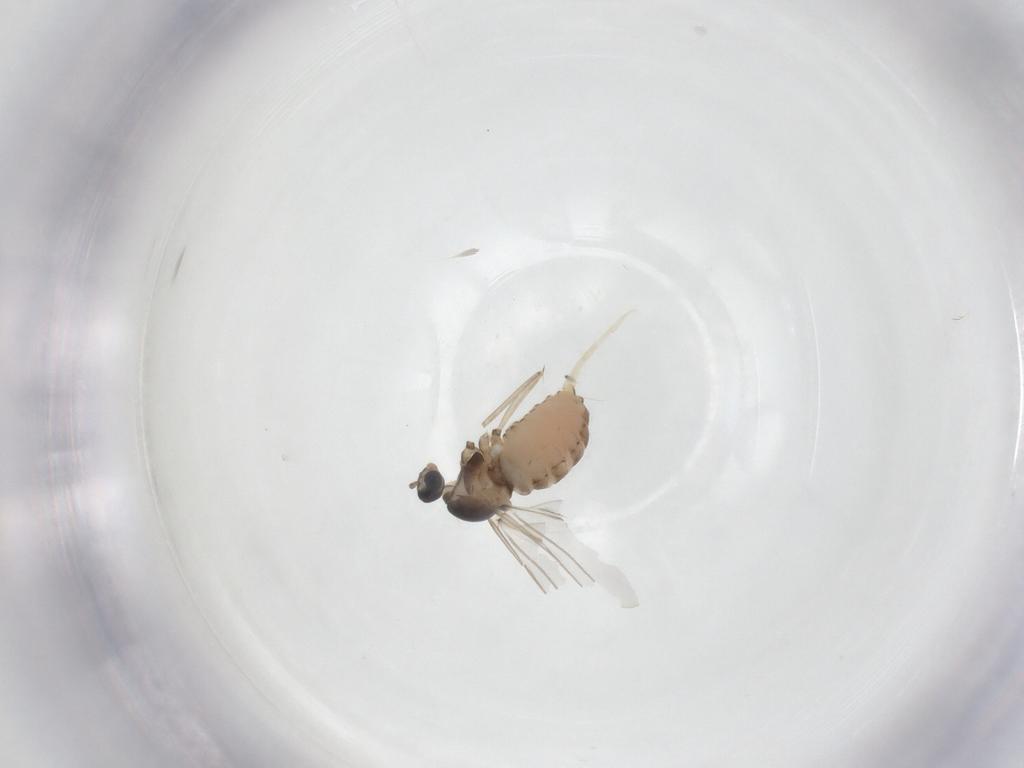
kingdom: Animalia
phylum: Arthropoda
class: Insecta
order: Diptera
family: Cecidomyiidae
